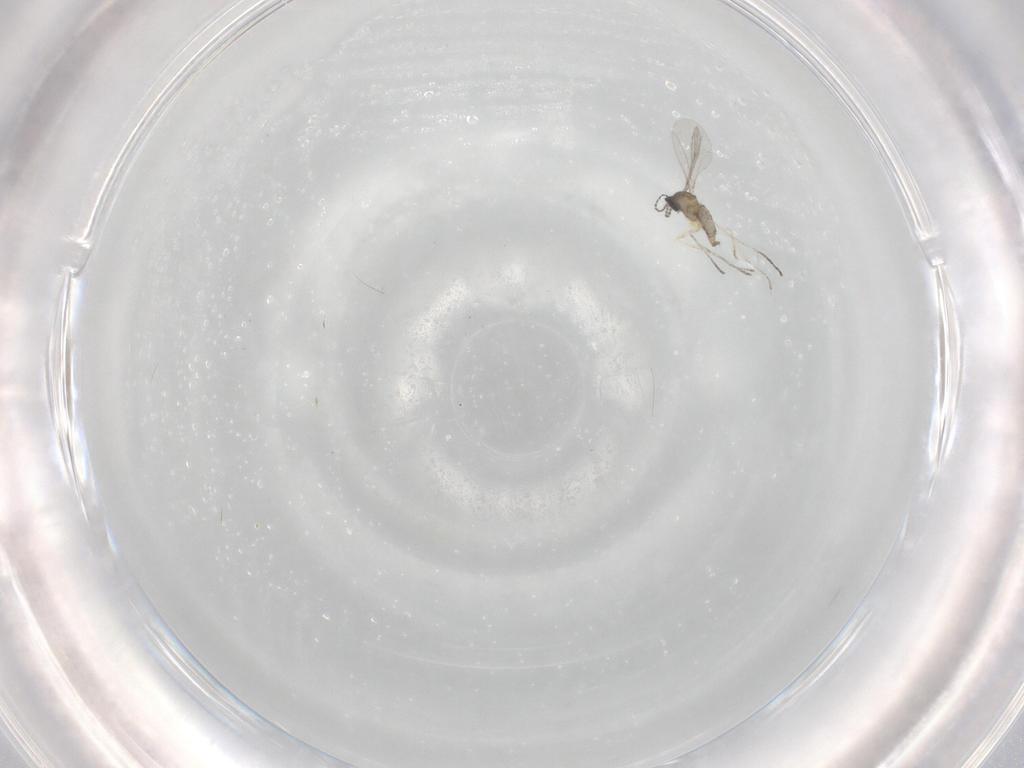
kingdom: Animalia
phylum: Arthropoda
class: Insecta
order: Diptera
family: Cecidomyiidae
